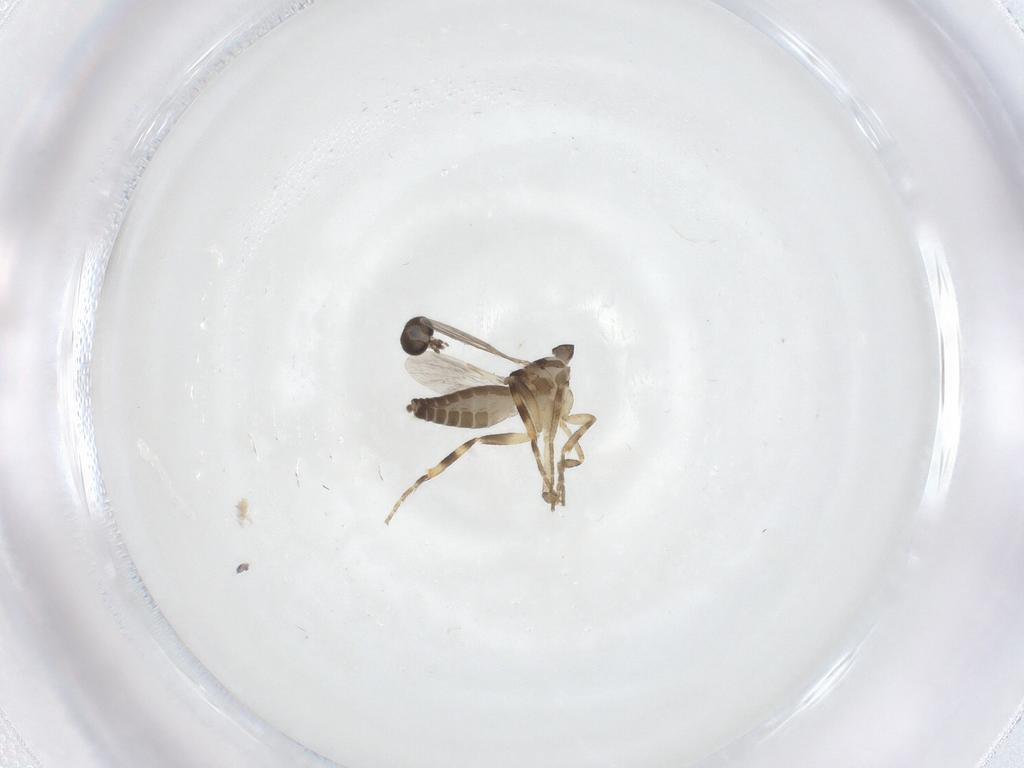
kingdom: Animalia
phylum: Arthropoda
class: Insecta
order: Diptera
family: Ceratopogonidae
